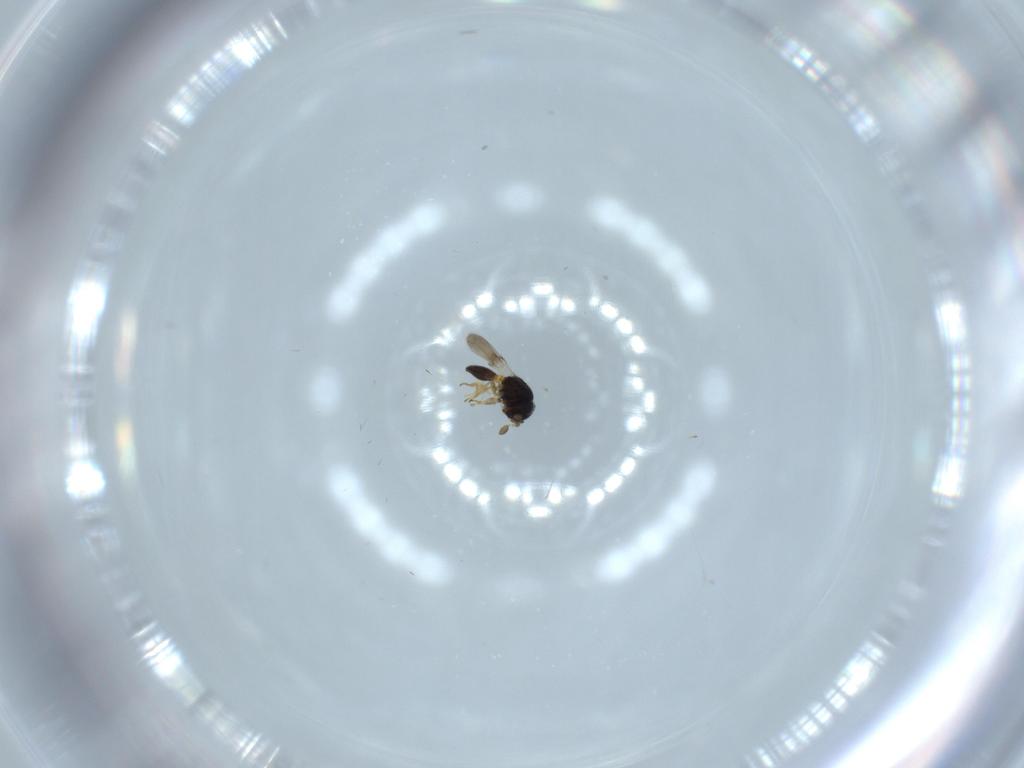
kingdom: Animalia
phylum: Arthropoda
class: Insecta
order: Hymenoptera
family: Scelionidae
